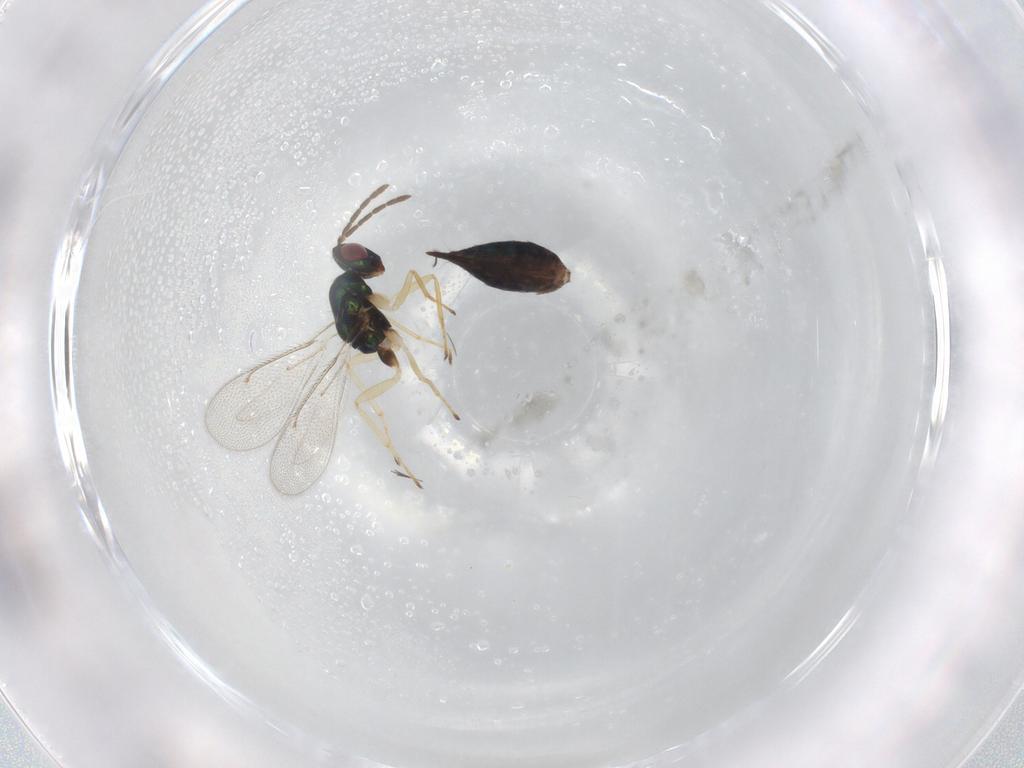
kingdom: Animalia
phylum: Arthropoda
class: Insecta
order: Hymenoptera
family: Eulophidae
